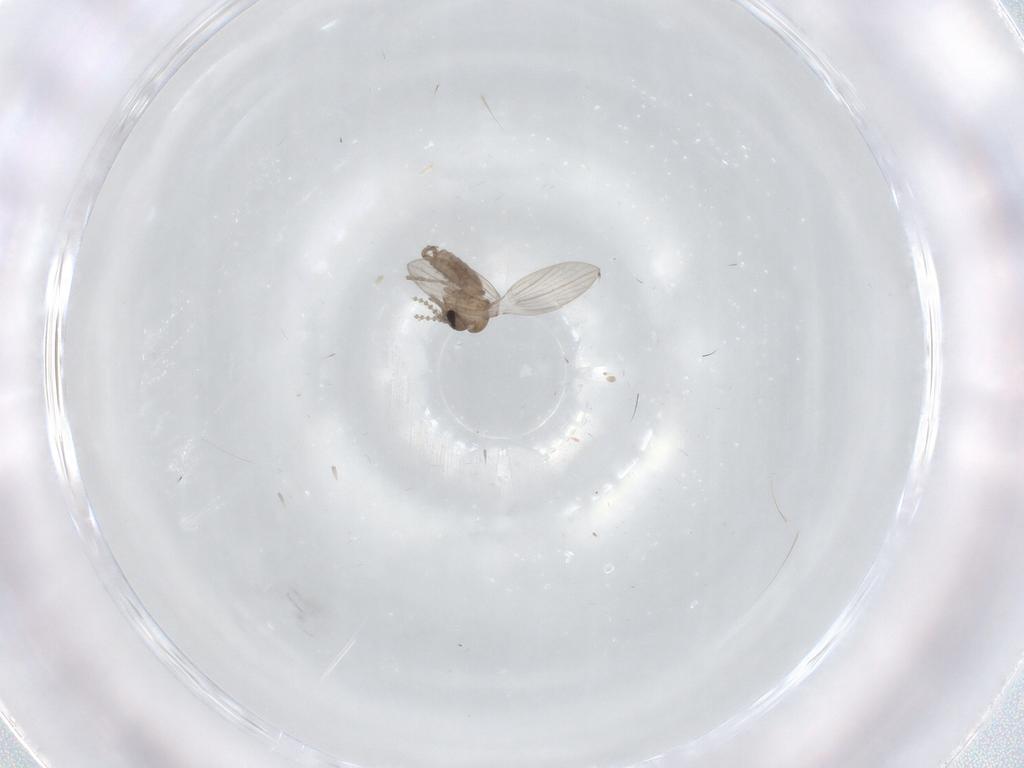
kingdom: Animalia
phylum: Arthropoda
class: Insecta
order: Diptera
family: Psychodidae
